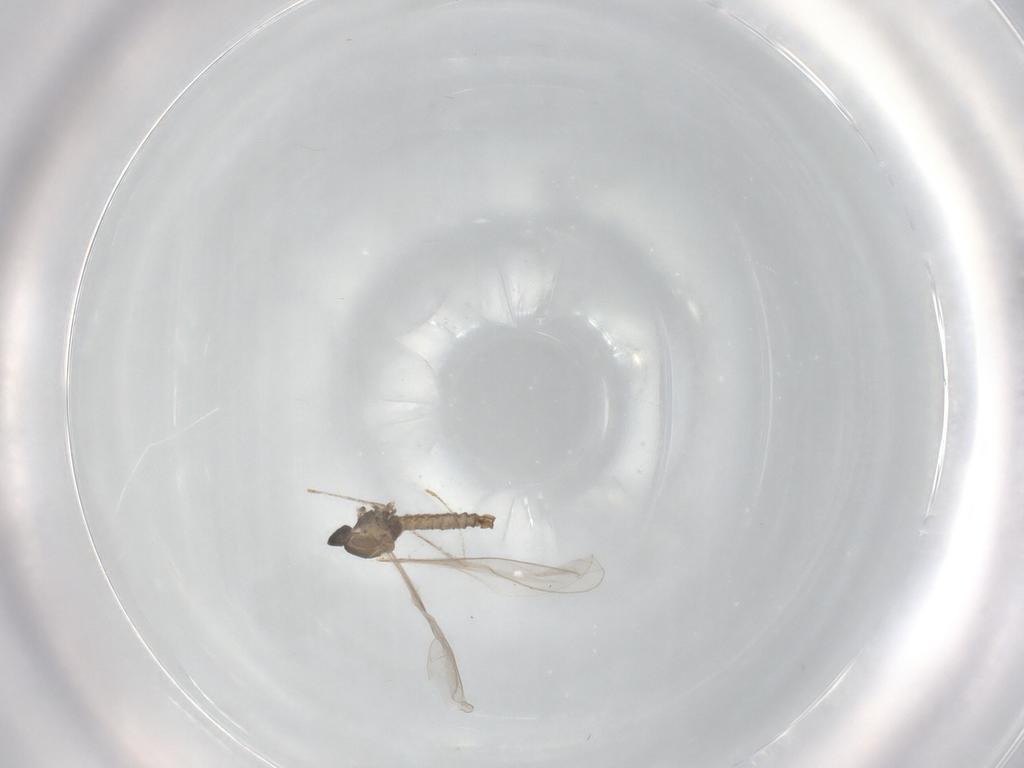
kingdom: Animalia
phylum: Arthropoda
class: Insecta
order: Diptera
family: Cecidomyiidae
